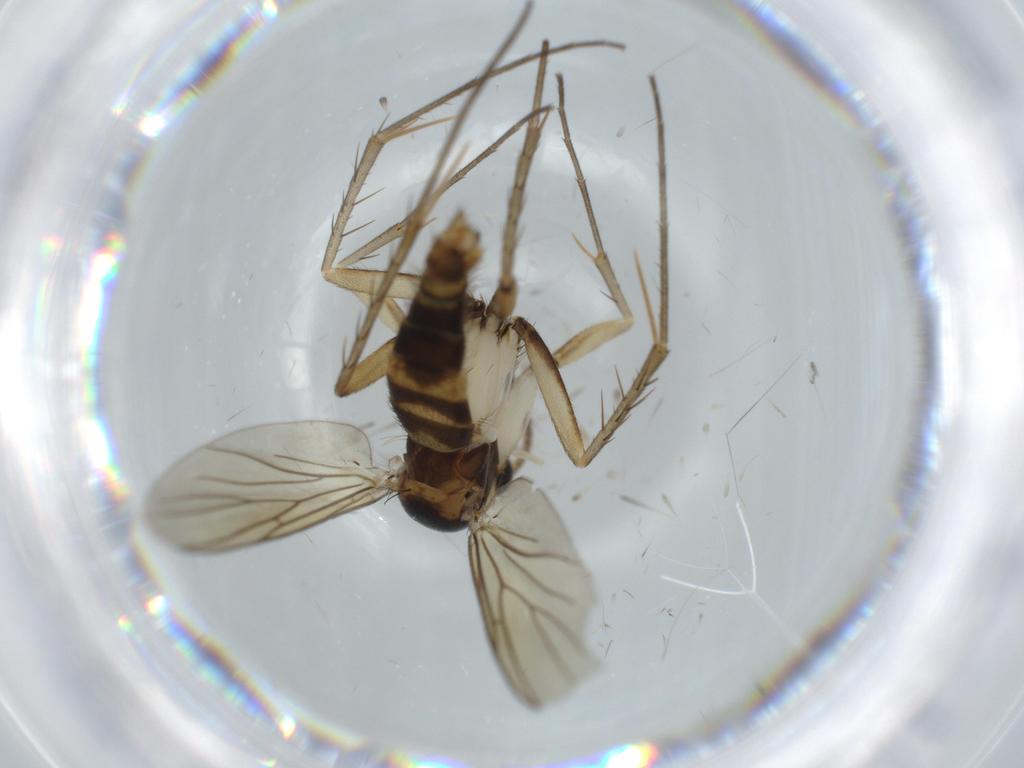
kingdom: Animalia
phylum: Arthropoda
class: Insecta
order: Diptera
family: Mycetophilidae
